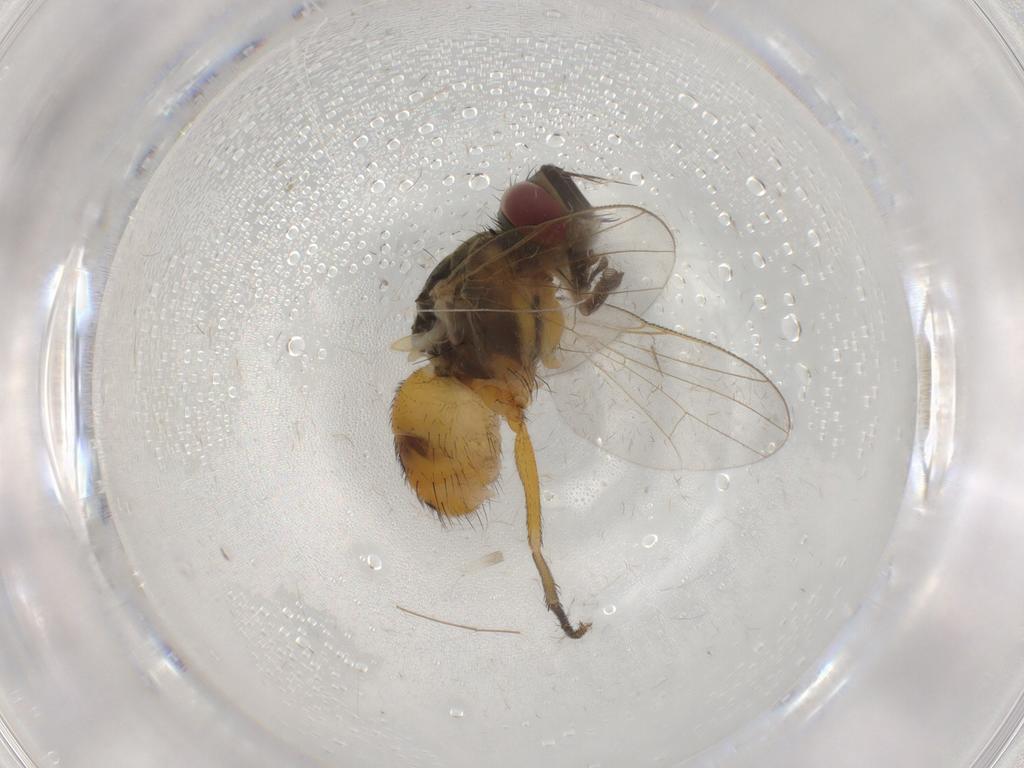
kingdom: Animalia
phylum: Arthropoda
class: Insecta
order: Diptera
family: Muscidae
